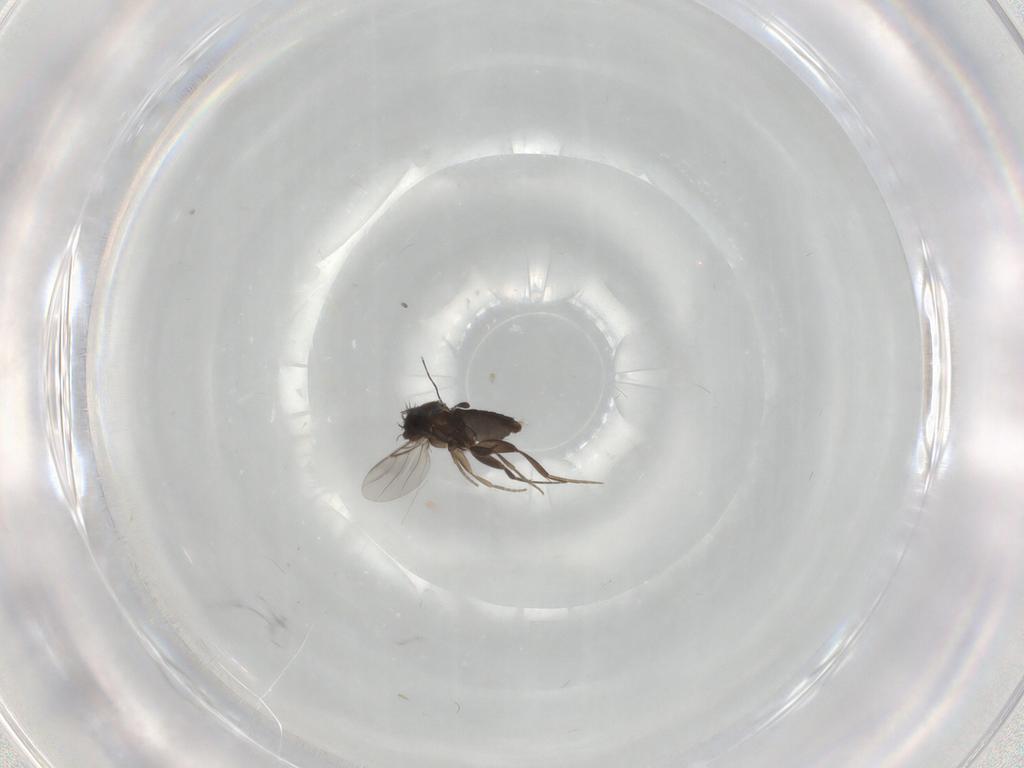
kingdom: Animalia
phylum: Arthropoda
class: Insecta
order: Diptera
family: Phoridae
